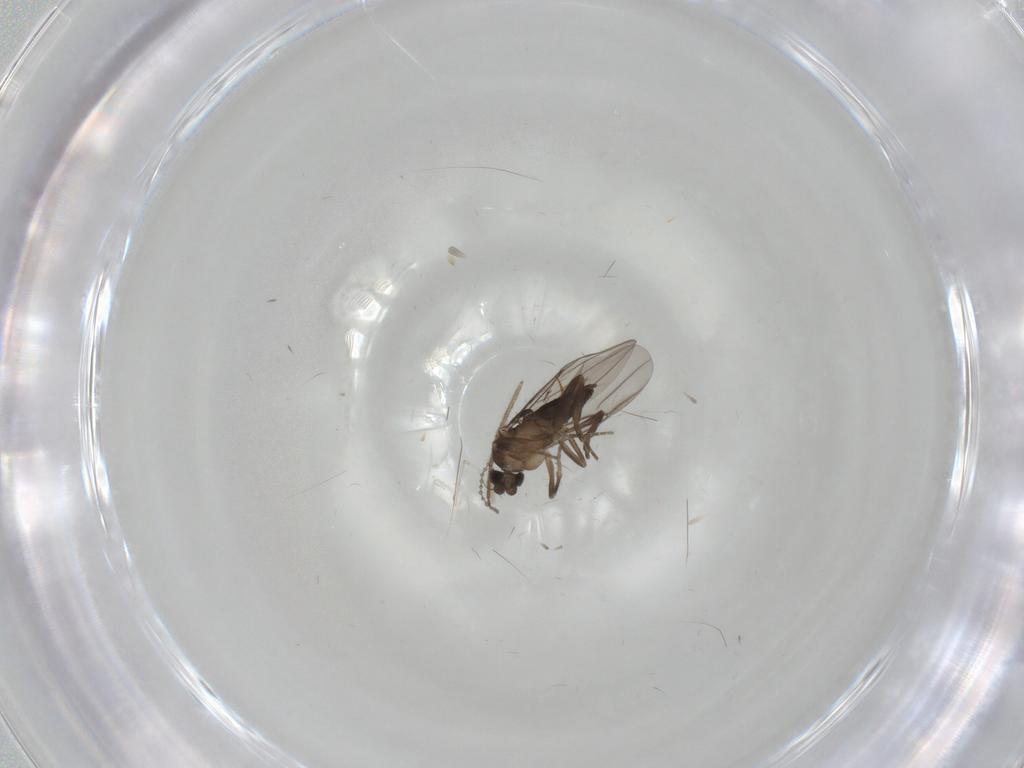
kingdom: Animalia
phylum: Arthropoda
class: Insecta
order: Diptera
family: Cecidomyiidae
